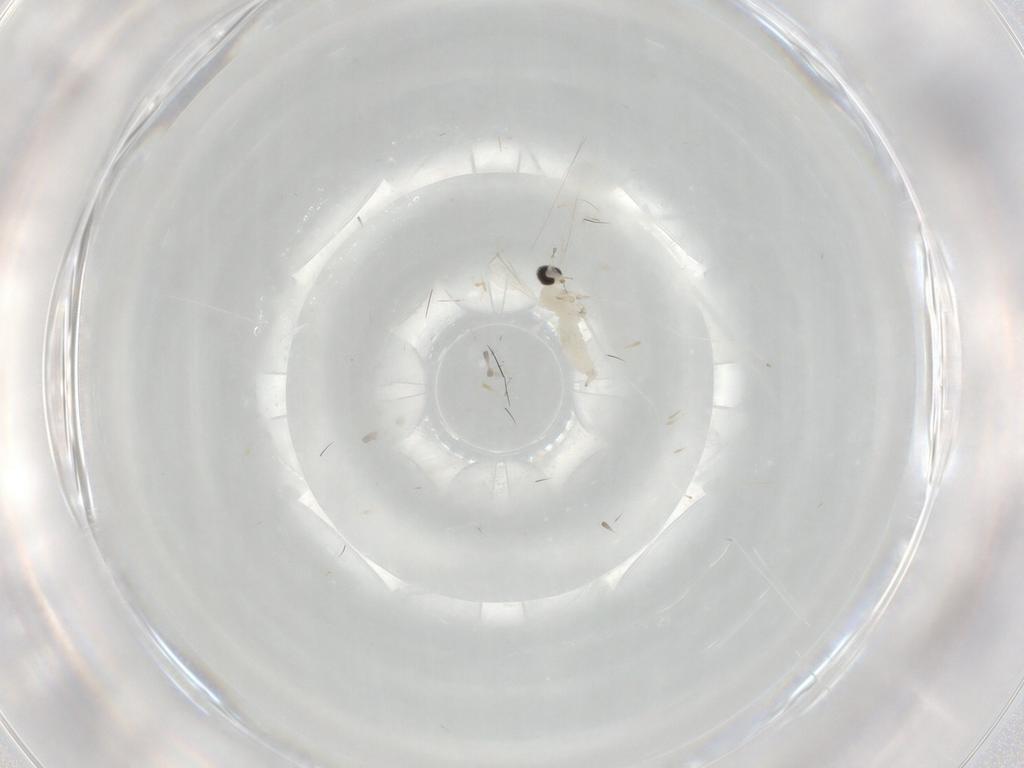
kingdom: Animalia
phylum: Arthropoda
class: Insecta
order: Diptera
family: Cecidomyiidae
